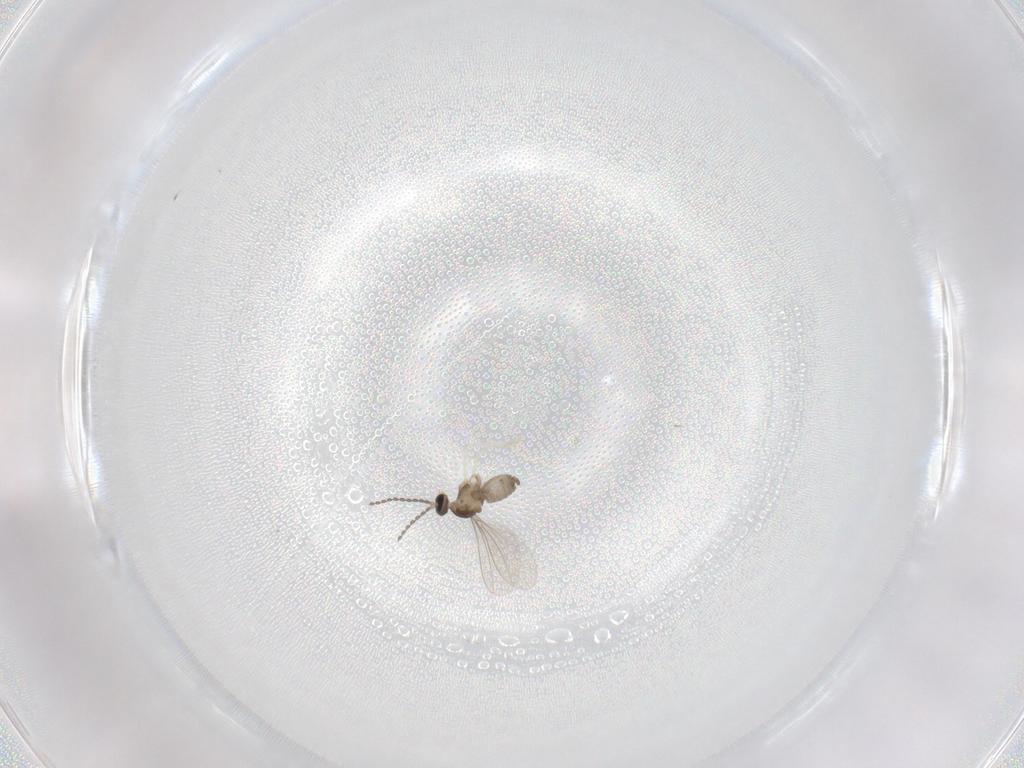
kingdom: Animalia
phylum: Arthropoda
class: Insecta
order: Diptera
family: Cecidomyiidae
